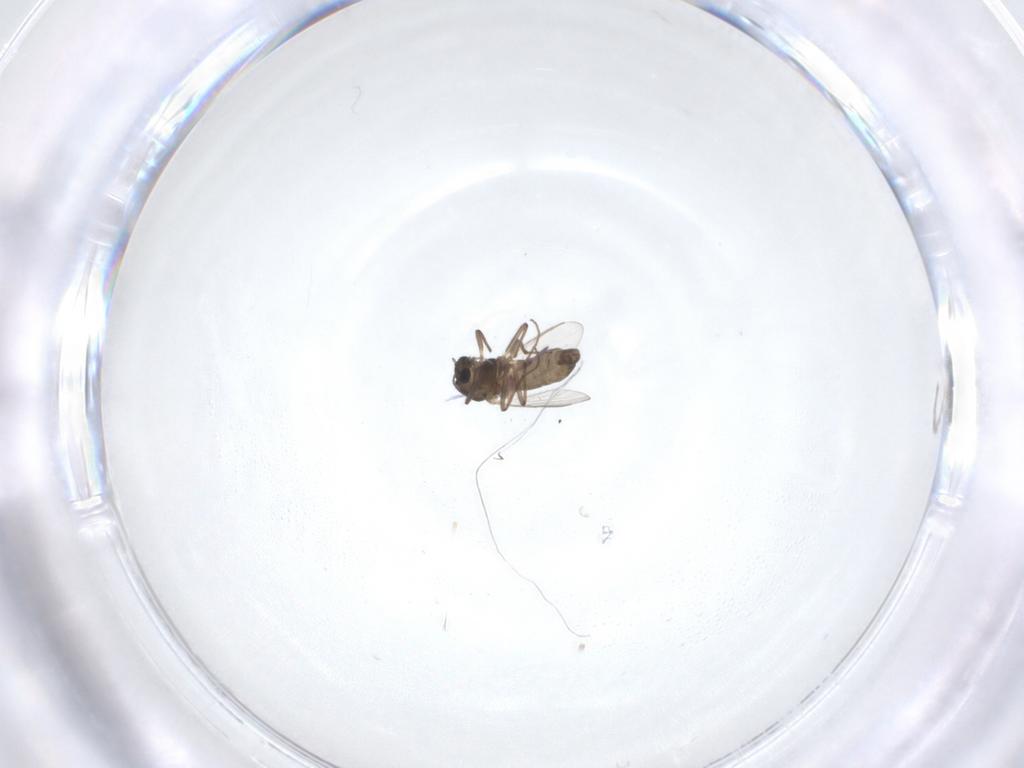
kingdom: Animalia
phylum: Arthropoda
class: Insecta
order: Diptera
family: Chironomidae
